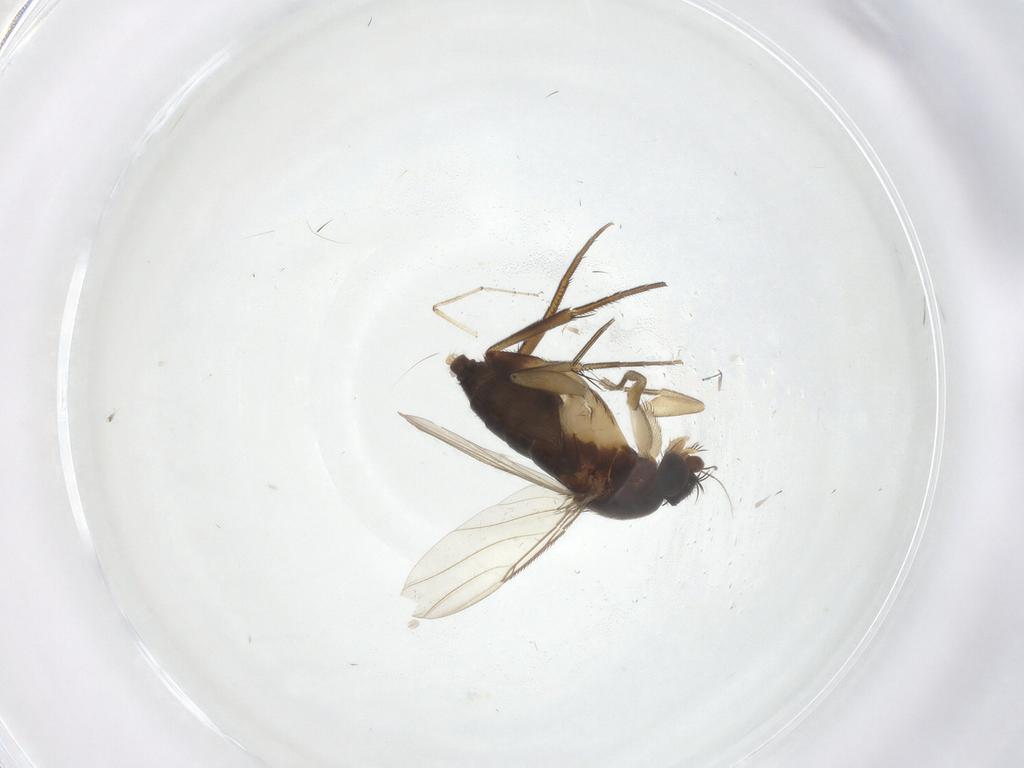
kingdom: Animalia
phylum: Arthropoda
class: Insecta
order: Diptera
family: Phoridae
